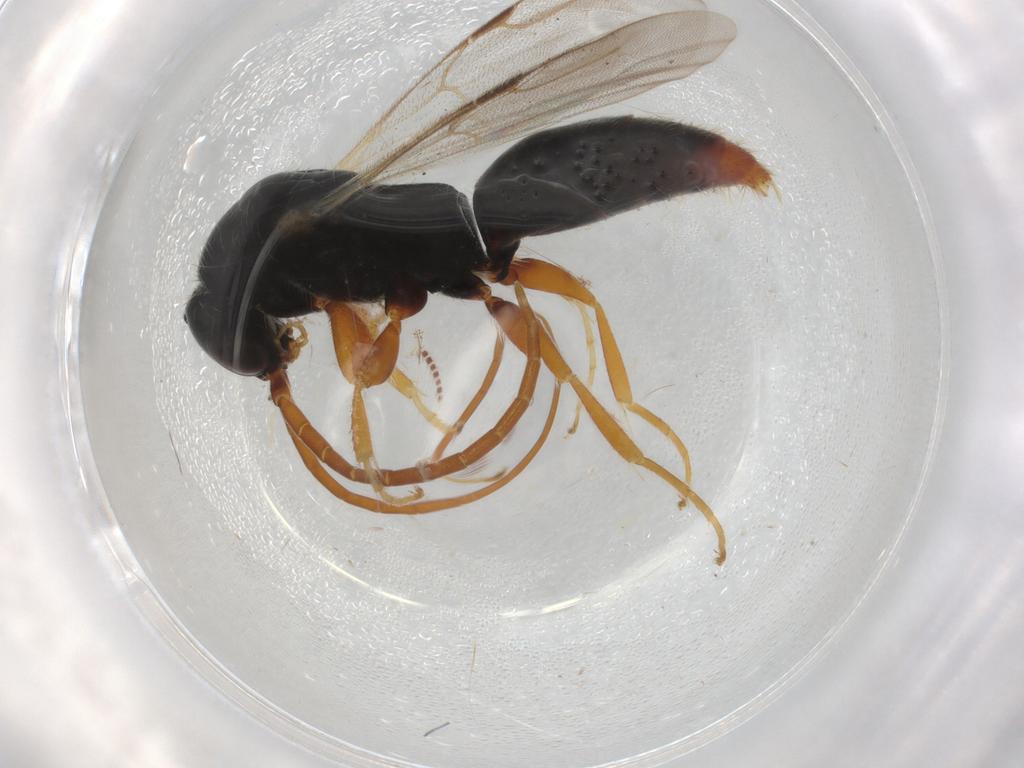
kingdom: Animalia
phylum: Arthropoda
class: Insecta
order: Hymenoptera
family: Bethylidae
